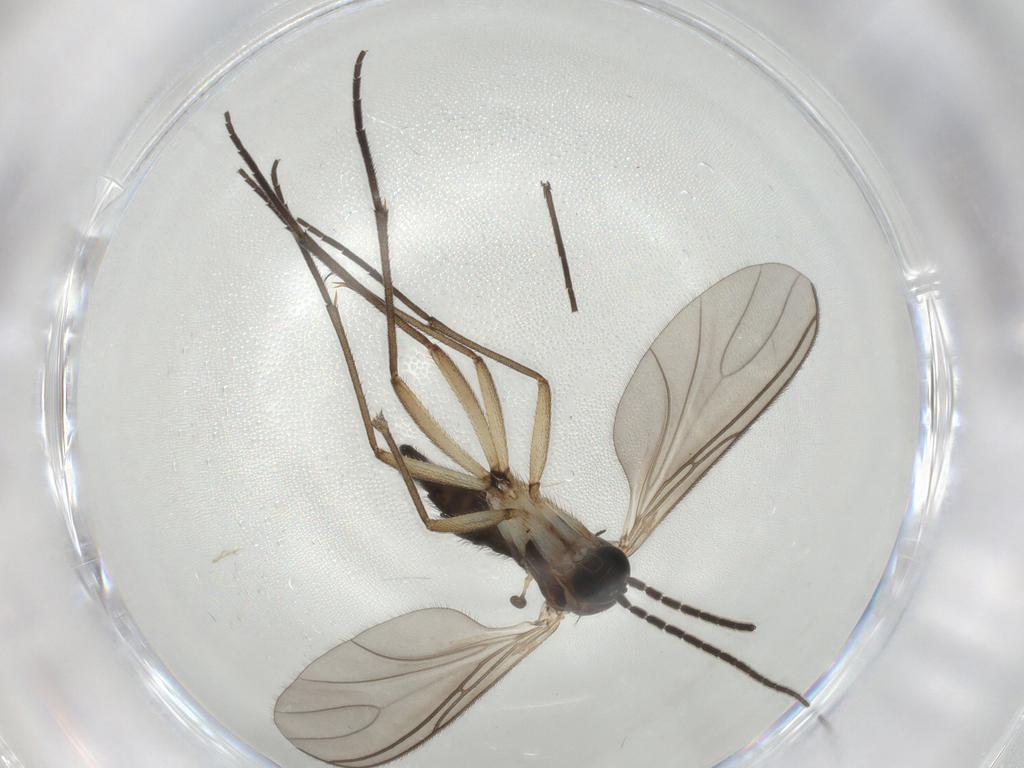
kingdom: Animalia
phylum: Arthropoda
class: Insecta
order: Diptera
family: Sciaridae
